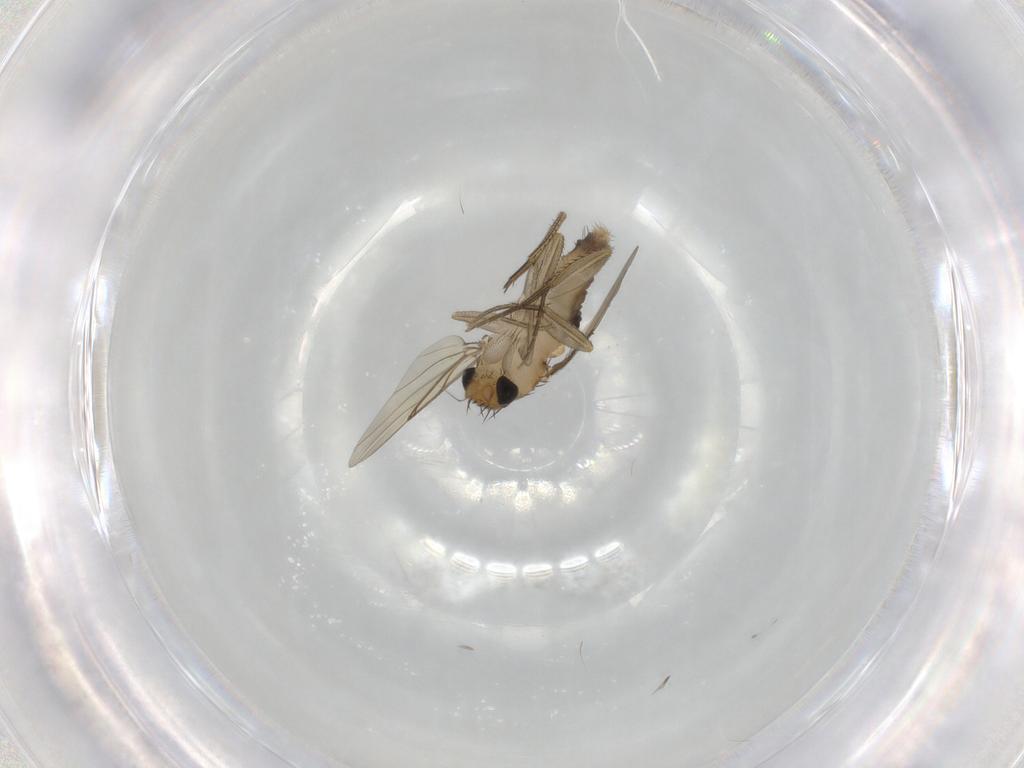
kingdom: Animalia
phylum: Arthropoda
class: Insecta
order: Diptera
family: Phoridae
